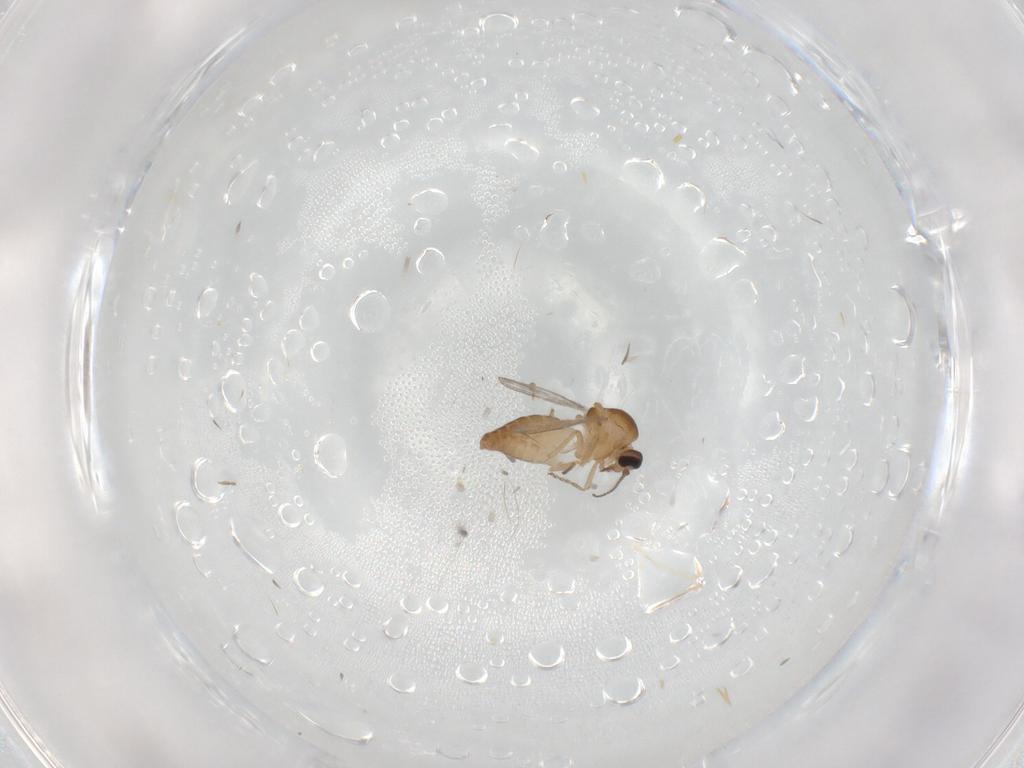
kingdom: Animalia
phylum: Arthropoda
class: Insecta
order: Diptera
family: Ceratopogonidae
